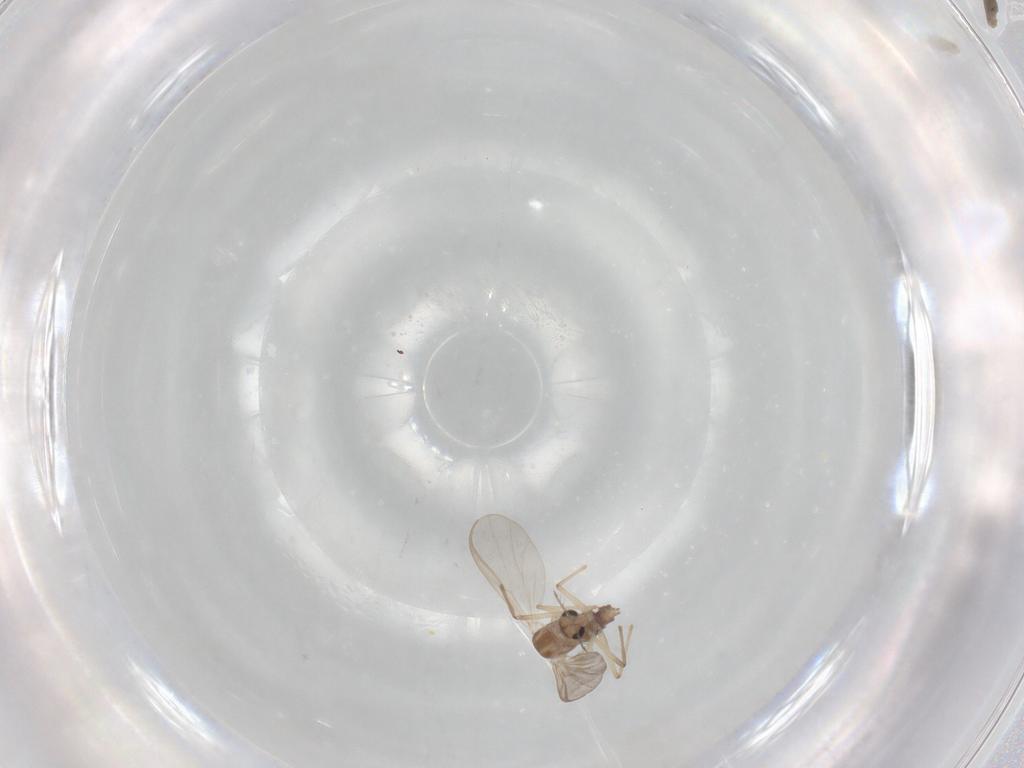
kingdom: Animalia
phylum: Arthropoda
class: Insecta
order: Diptera
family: Chironomidae
